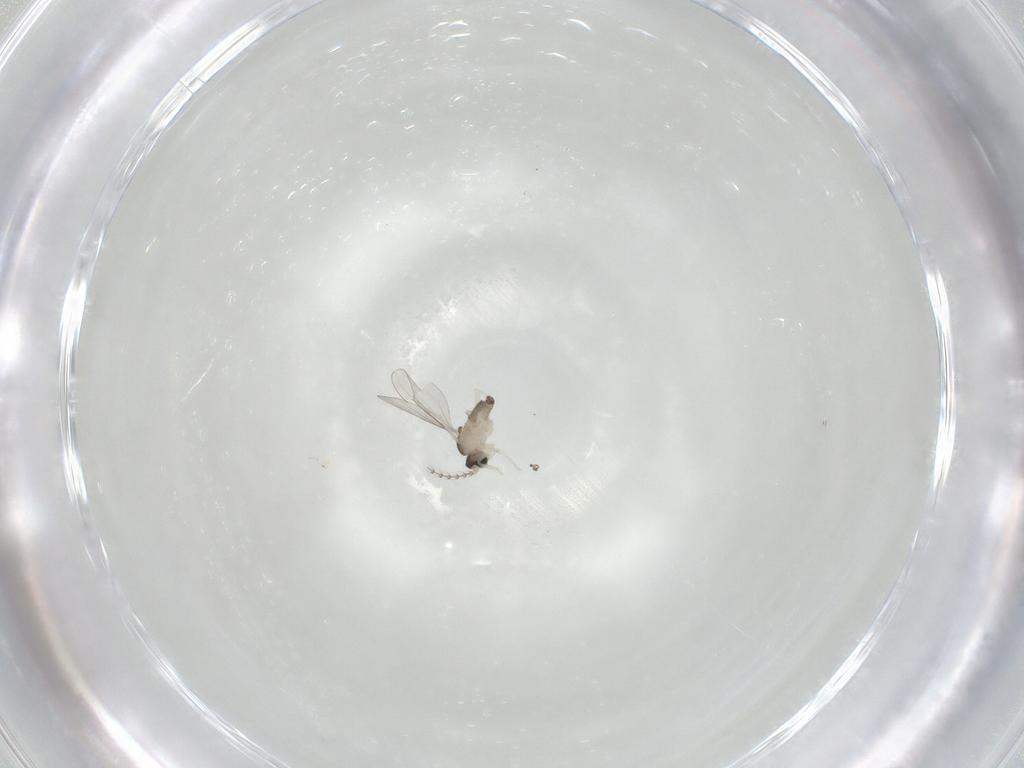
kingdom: Animalia
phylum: Arthropoda
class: Insecta
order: Diptera
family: Cecidomyiidae
